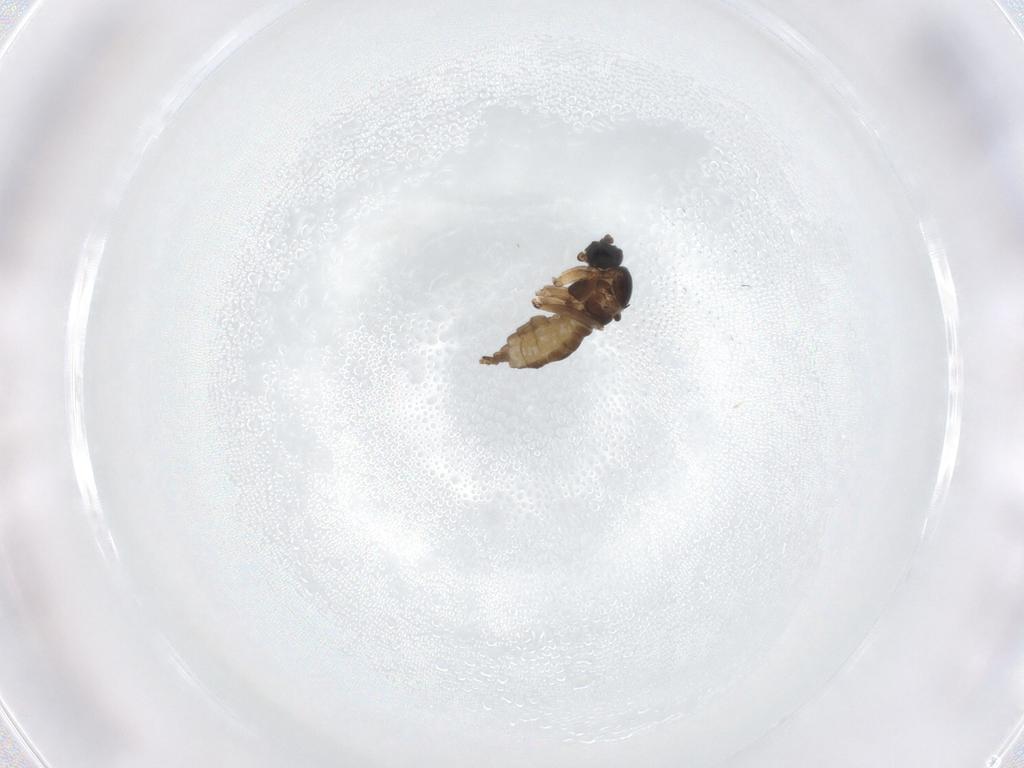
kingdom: Animalia
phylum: Arthropoda
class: Insecta
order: Diptera
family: Phoridae
